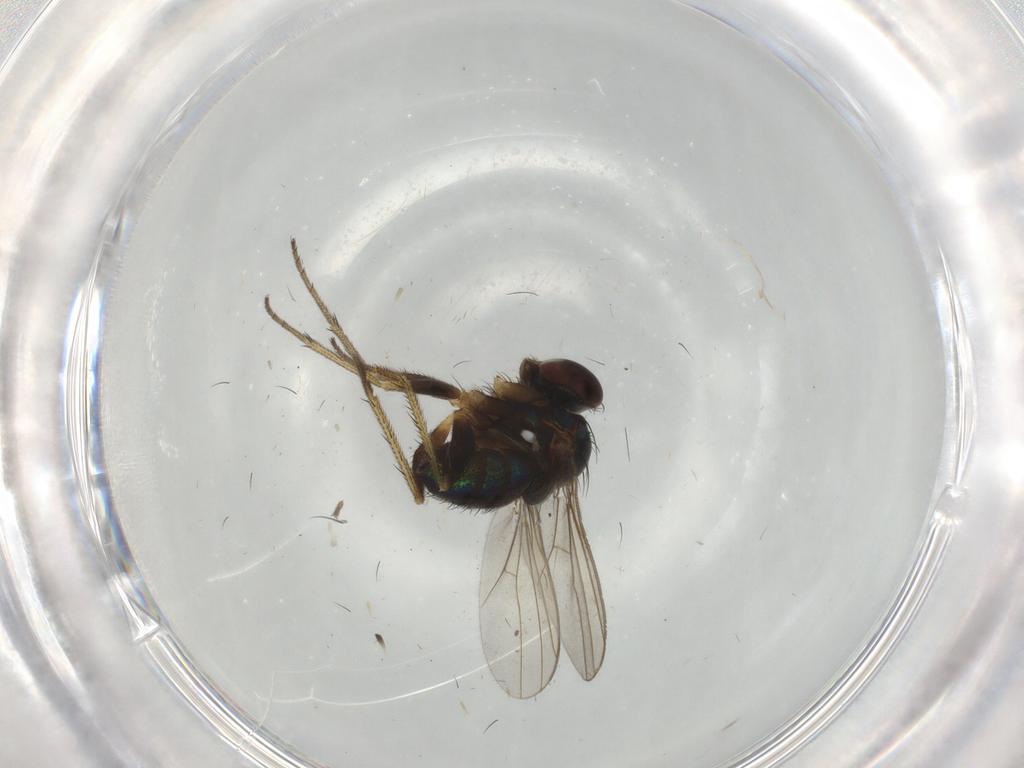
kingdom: Animalia
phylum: Arthropoda
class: Insecta
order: Diptera
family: Dolichopodidae
